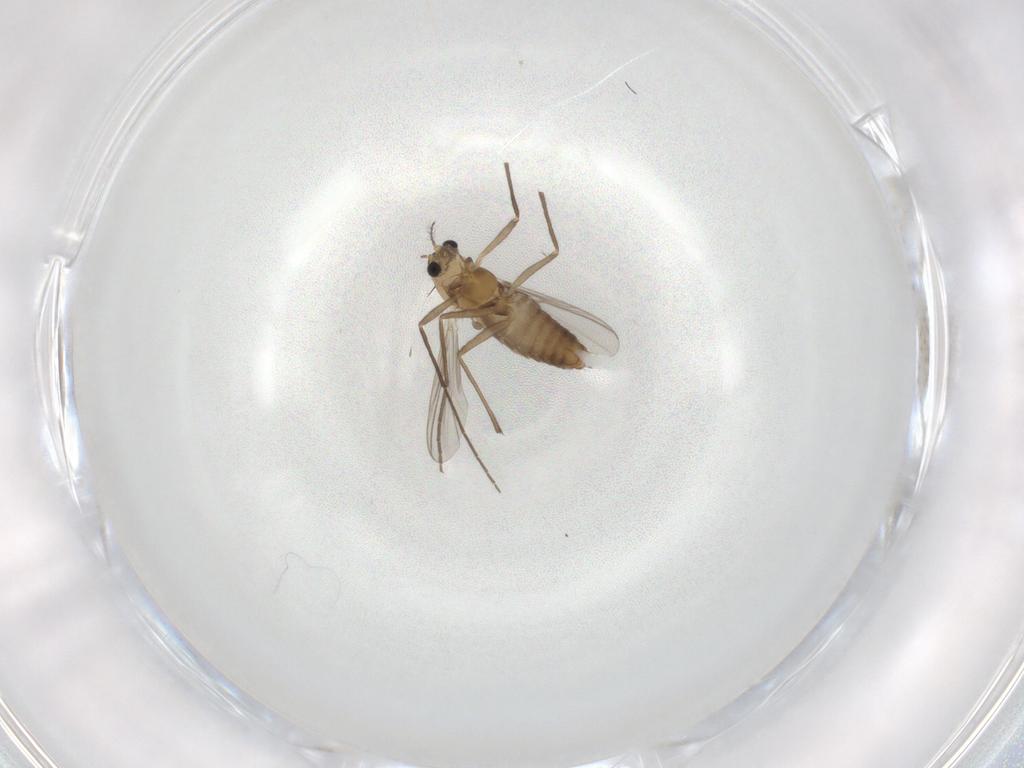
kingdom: Animalia
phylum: Arthropoda
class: Insecta
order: Diptera
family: Chironomidae
